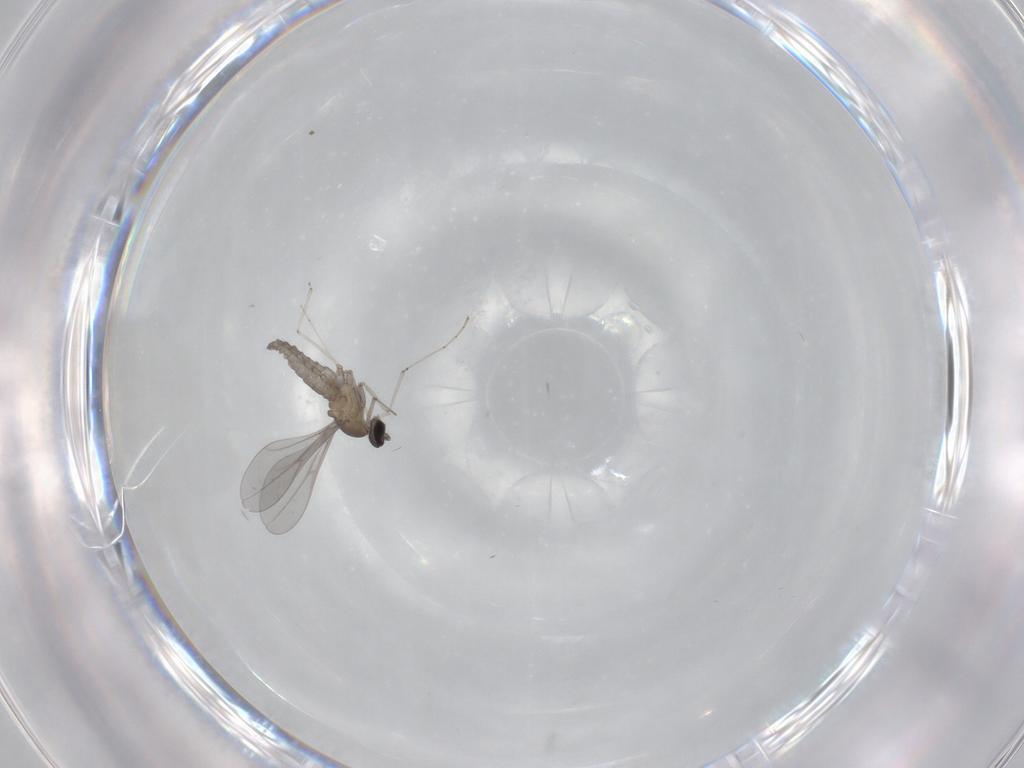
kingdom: Animalia
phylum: Arthropoda
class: Insecta
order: Diptera
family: Cecidomyiidae
